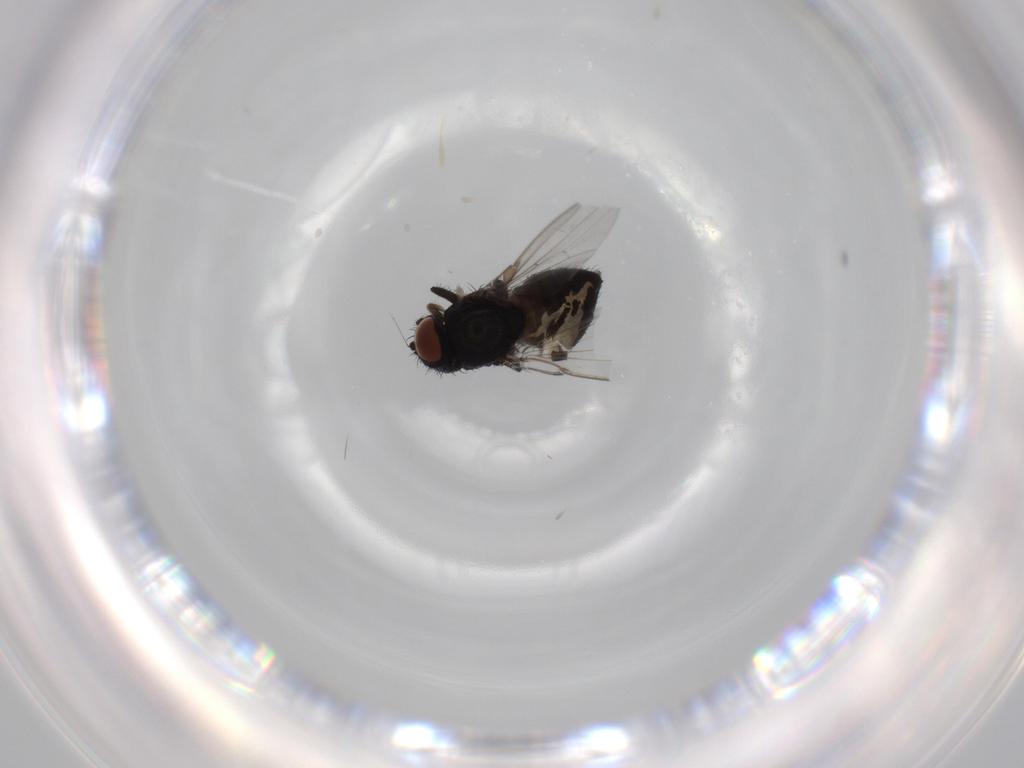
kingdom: Animalia
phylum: Arthropoda
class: Insecta
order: Diptera
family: Milichiidae
